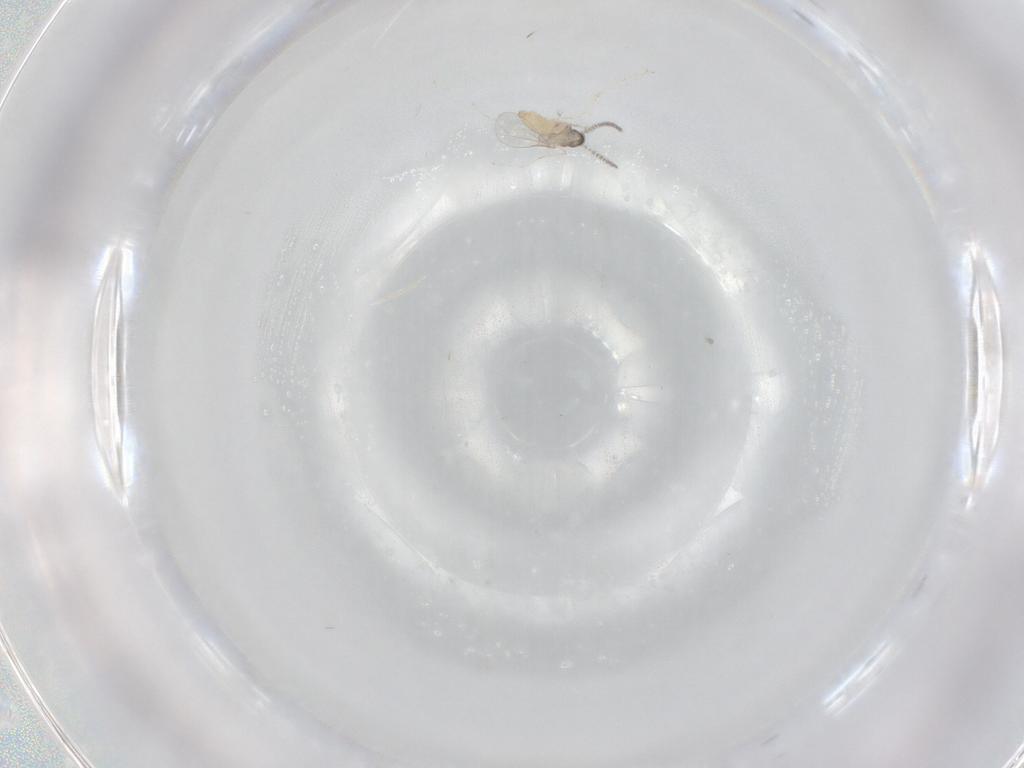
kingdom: Animalia
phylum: Arthropoda
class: Insecta
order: Diptera
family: Cecidomyiidae
